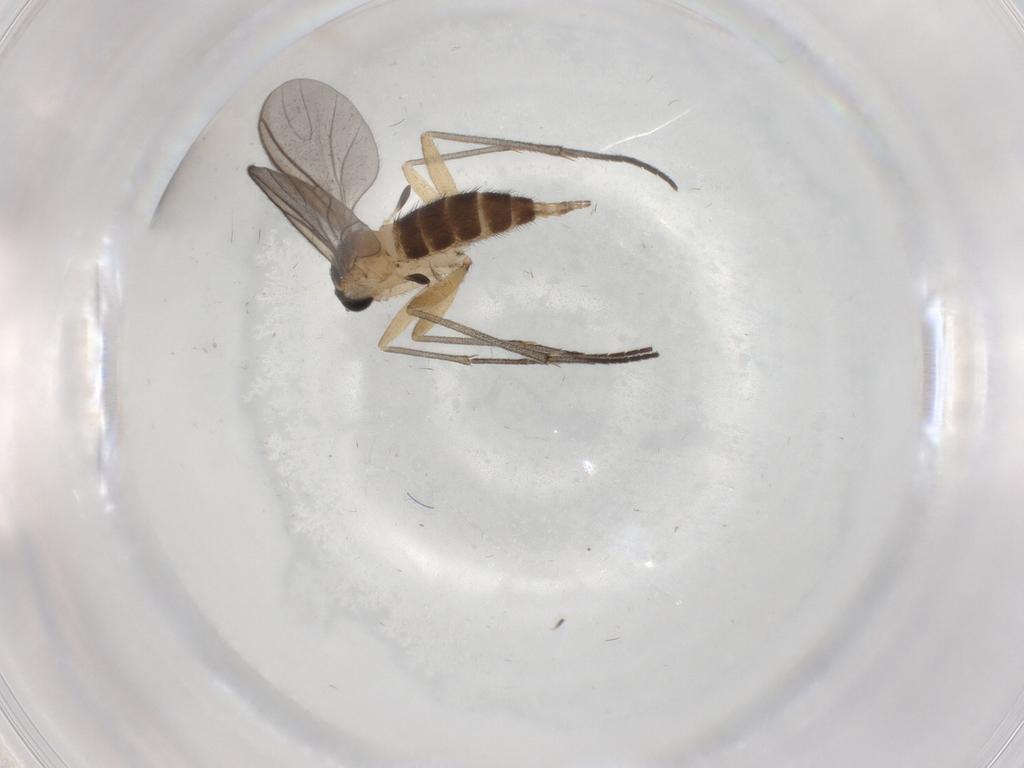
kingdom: Animalia
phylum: Arthropoda
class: Insecta
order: Diptera
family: Sciaridae
